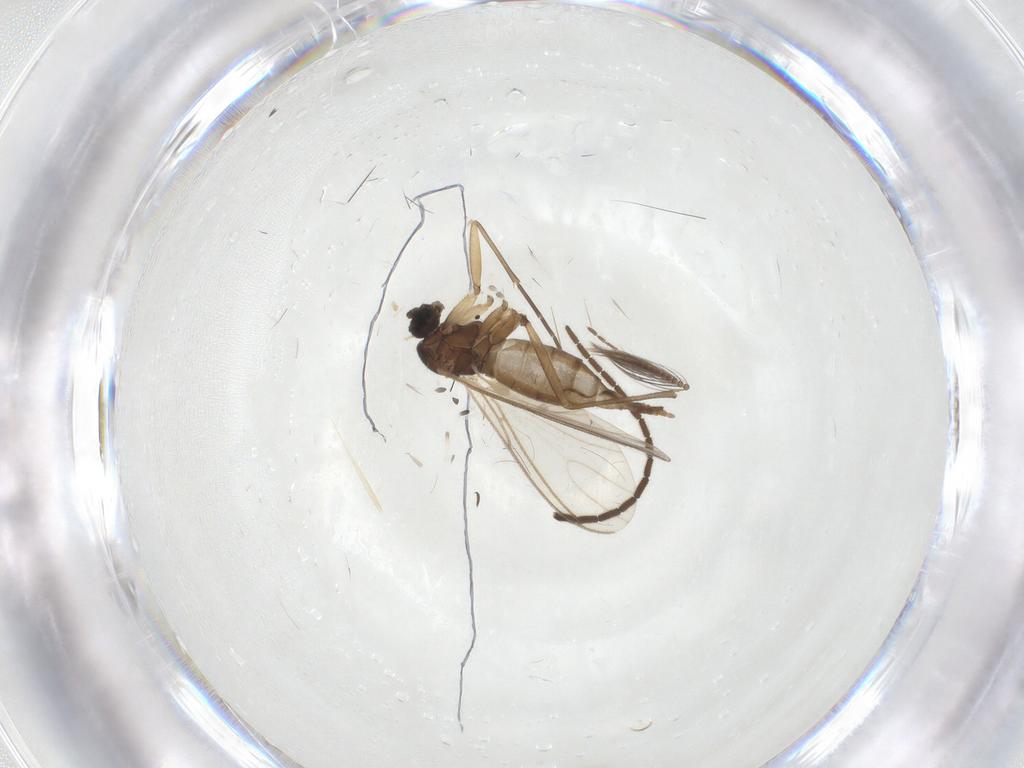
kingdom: Animalia
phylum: Arthropoda
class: Insecta
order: Diptera
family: Sciaridae
